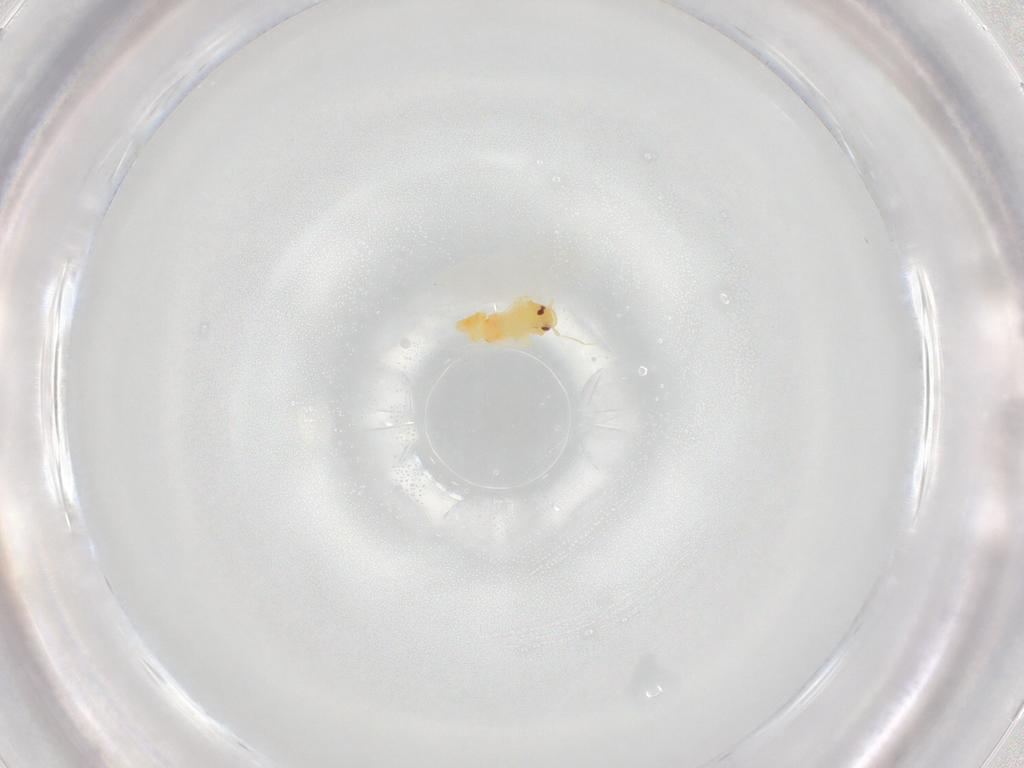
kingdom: Animalia
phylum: Arthropoda
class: Insecta
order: Hemiptera
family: Aleyrodidae
